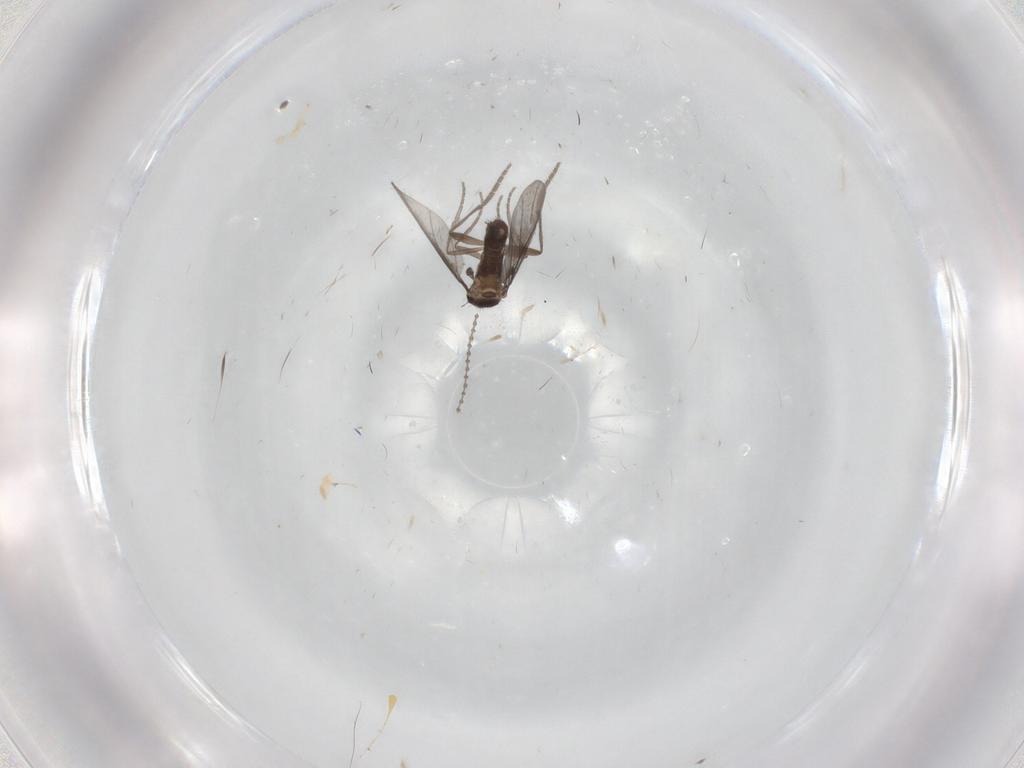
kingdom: Animalia
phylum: Arthropoda
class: Insecta
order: Diptera
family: Cecidomyiidae
